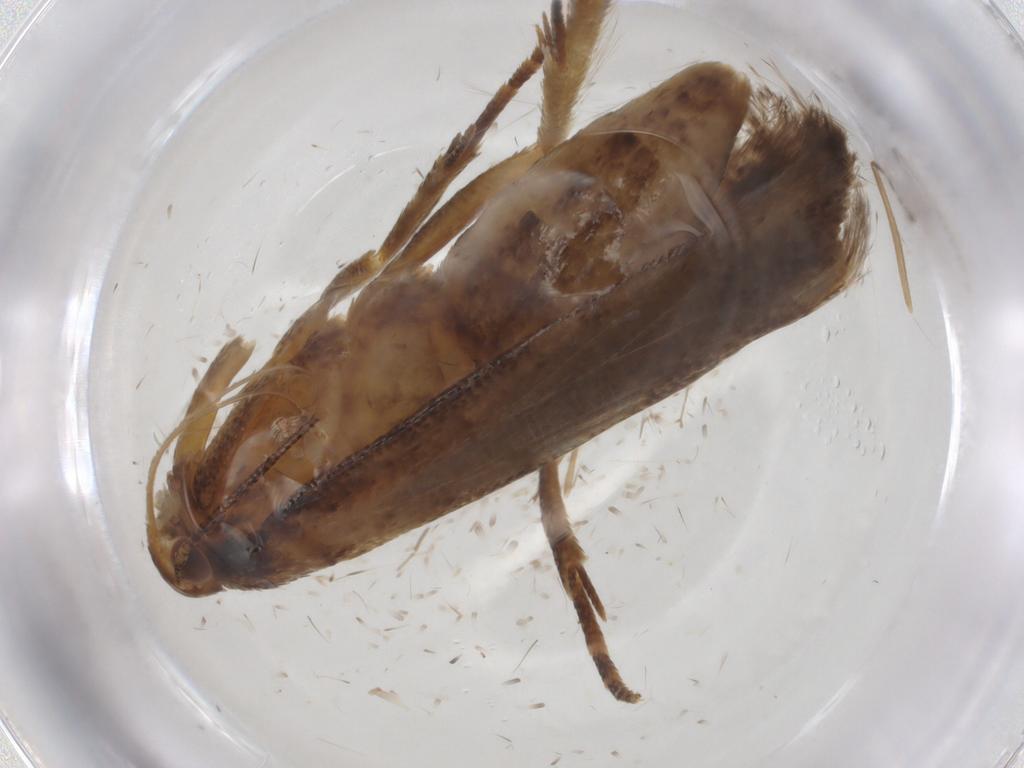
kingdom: Animalia
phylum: Arthropoda
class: Insecta
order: Lepidoptera
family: Gelechiidae
